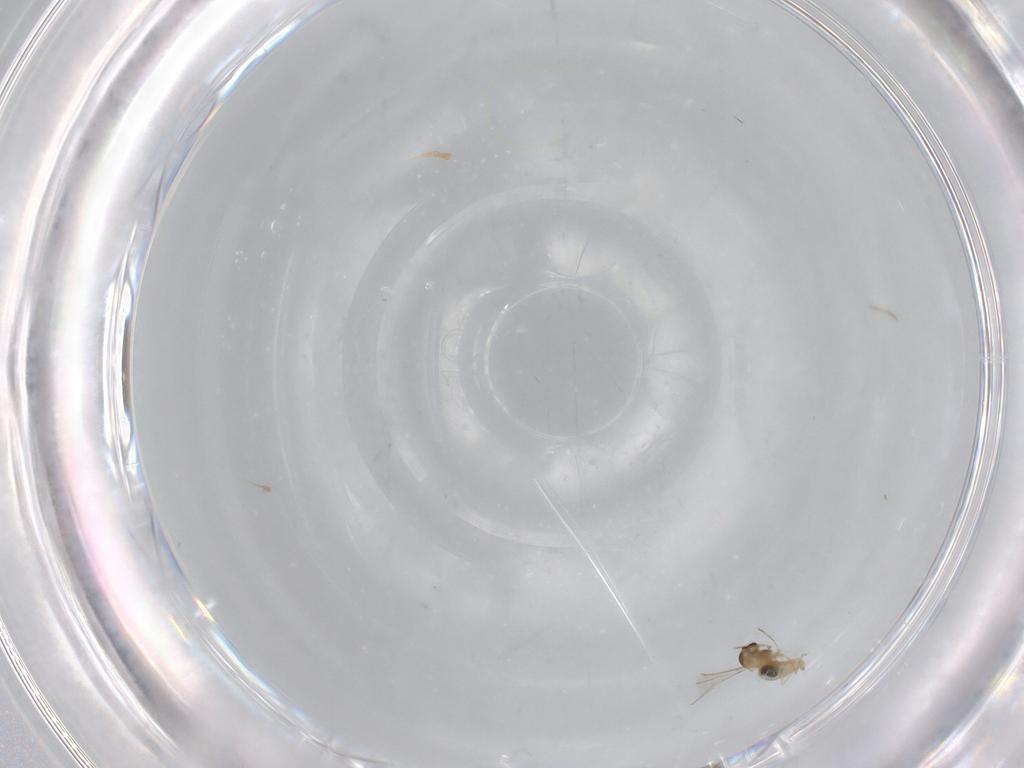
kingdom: Animalia
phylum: Arthropoda
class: Insecta
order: Diptera
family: Cecidomyiidae
